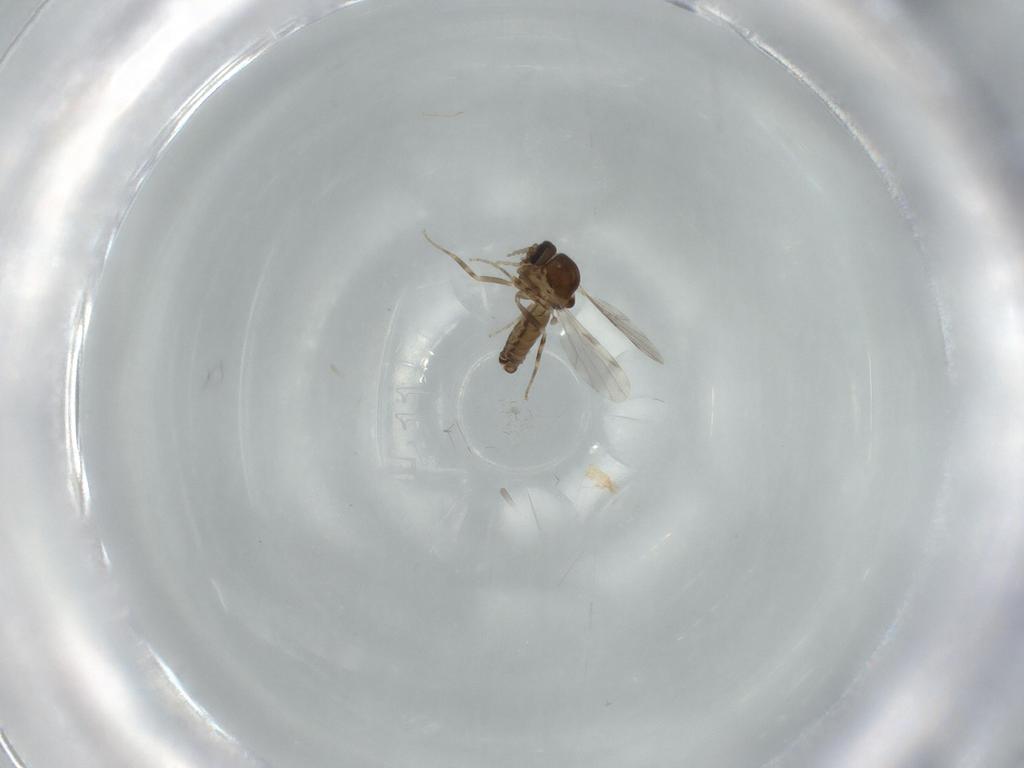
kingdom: Animalia
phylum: Arthropoda
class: Insecta
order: Diptera
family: Ceratopogonidae
